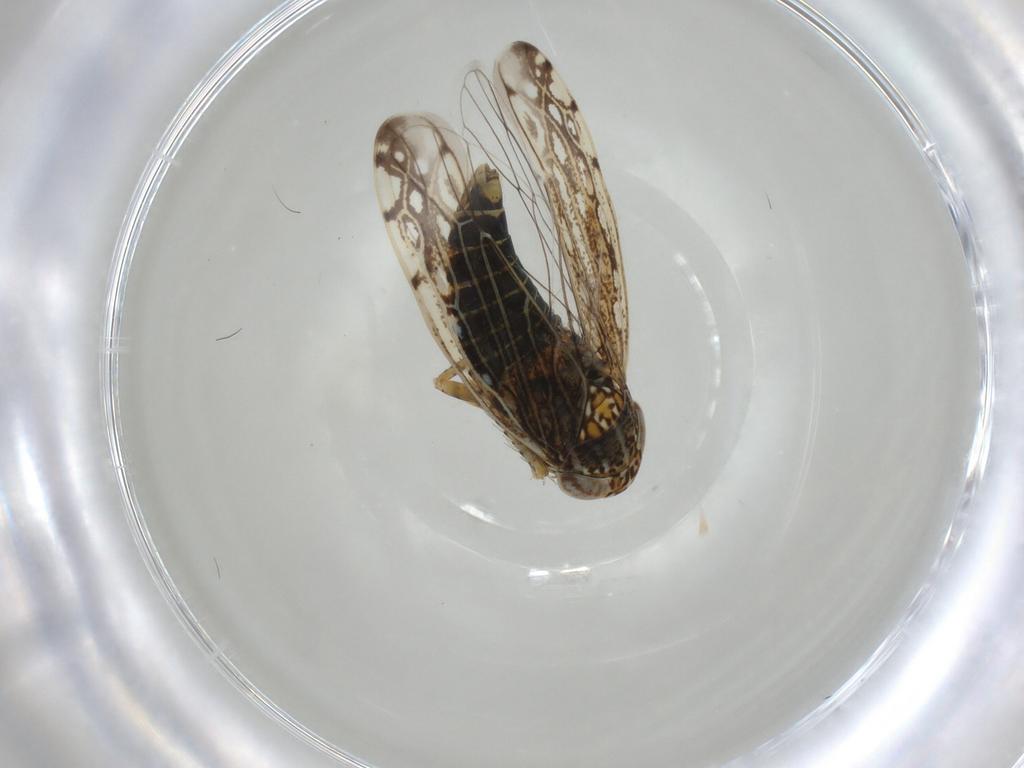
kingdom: Animalia
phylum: Arthropoda
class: Insecta
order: Hemiptera
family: Cicadellidae
